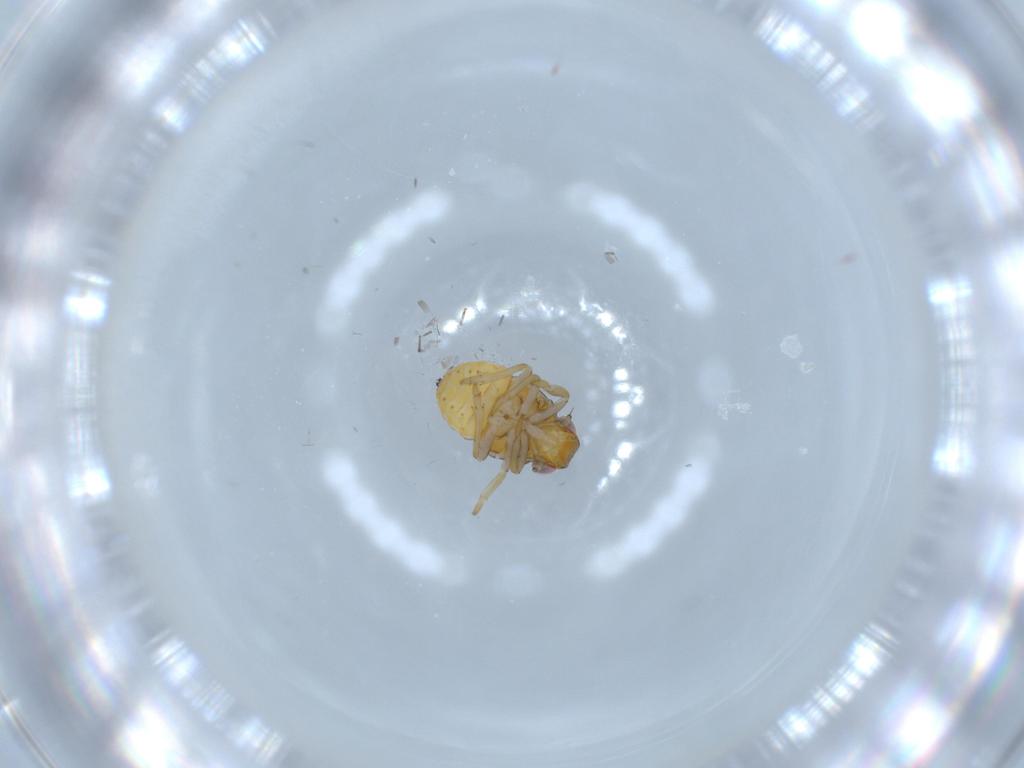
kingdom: Animalia
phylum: Arthropoda
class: Insecta
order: Hemiptera
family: Issidae
